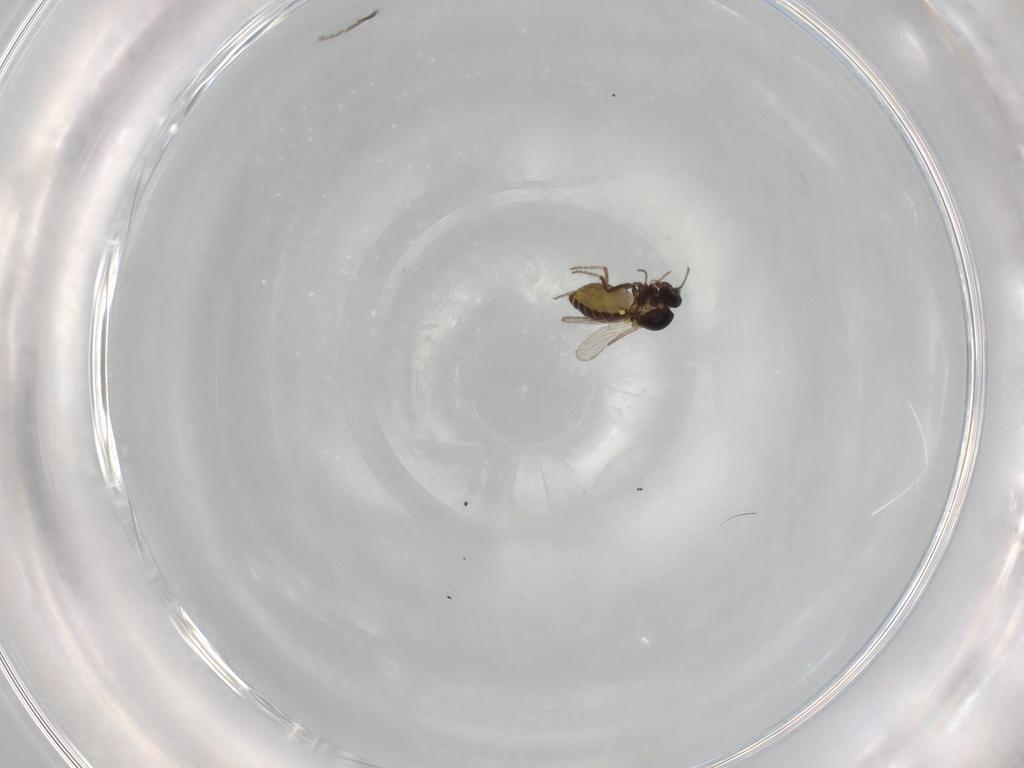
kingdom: Animalia
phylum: Arthropoda
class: Insecta
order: Diptera
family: Ceratopogonidae
